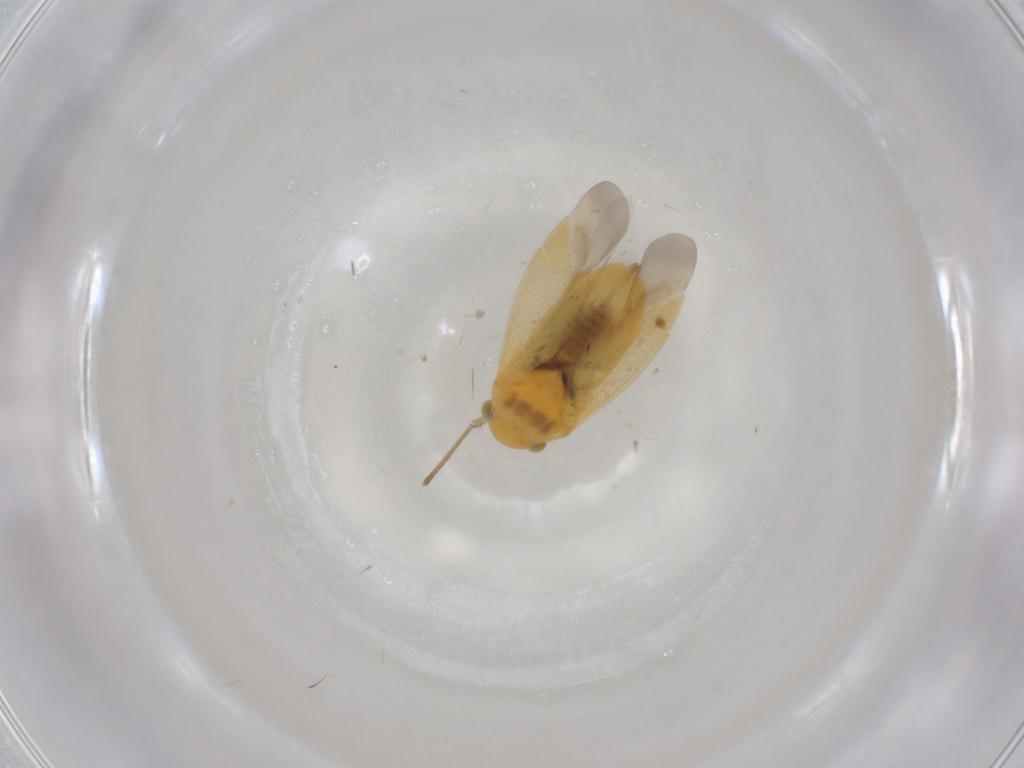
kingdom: Animalia
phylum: Arthropoda
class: Insecta
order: Hemiptera
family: Miridae
